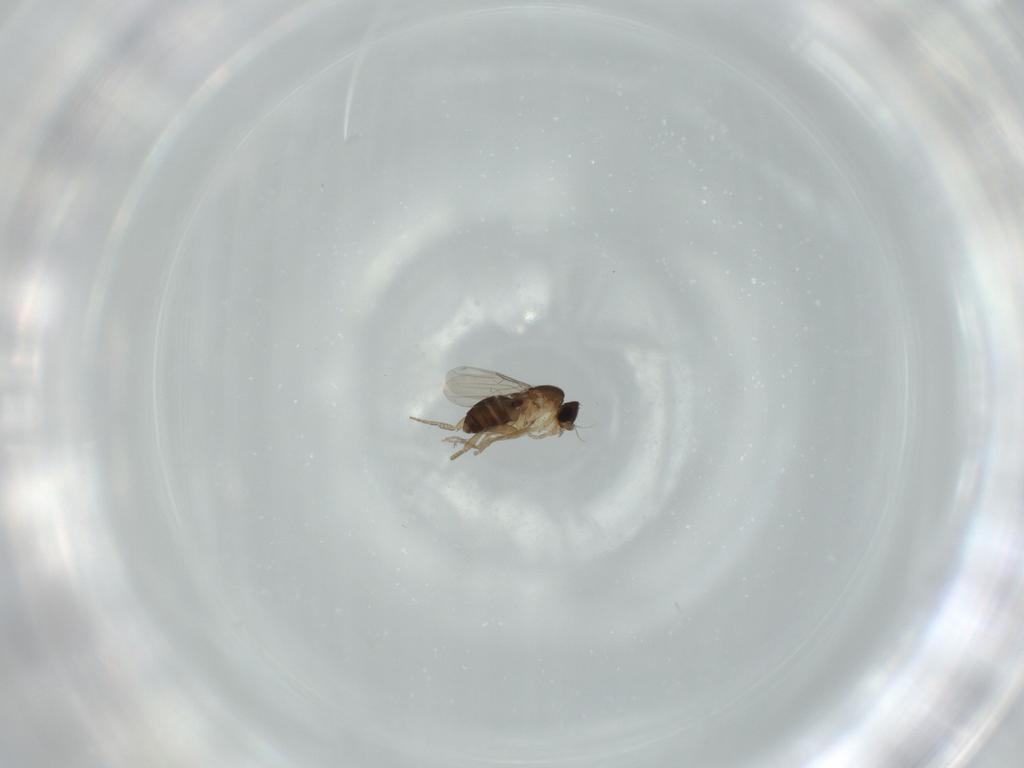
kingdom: Animalia
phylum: Arthropoda
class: Insecta
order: Diptera
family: Phoridae
